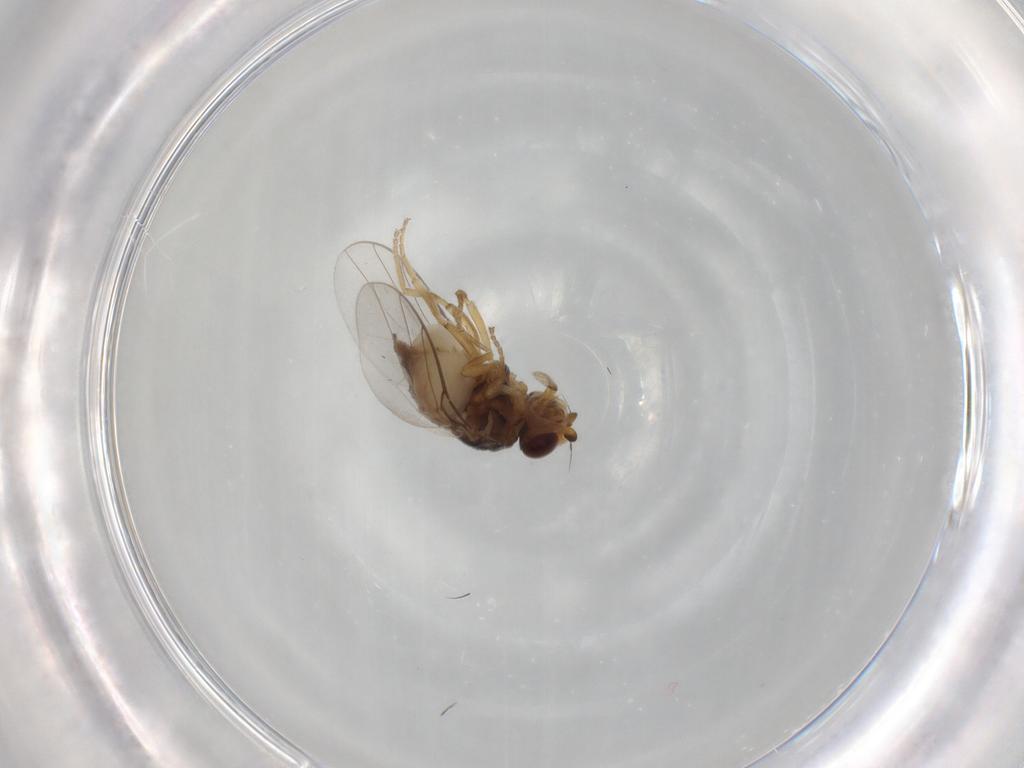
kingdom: Animalia
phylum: Arthropoda
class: Insecta
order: Diptera
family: Chloropidae
